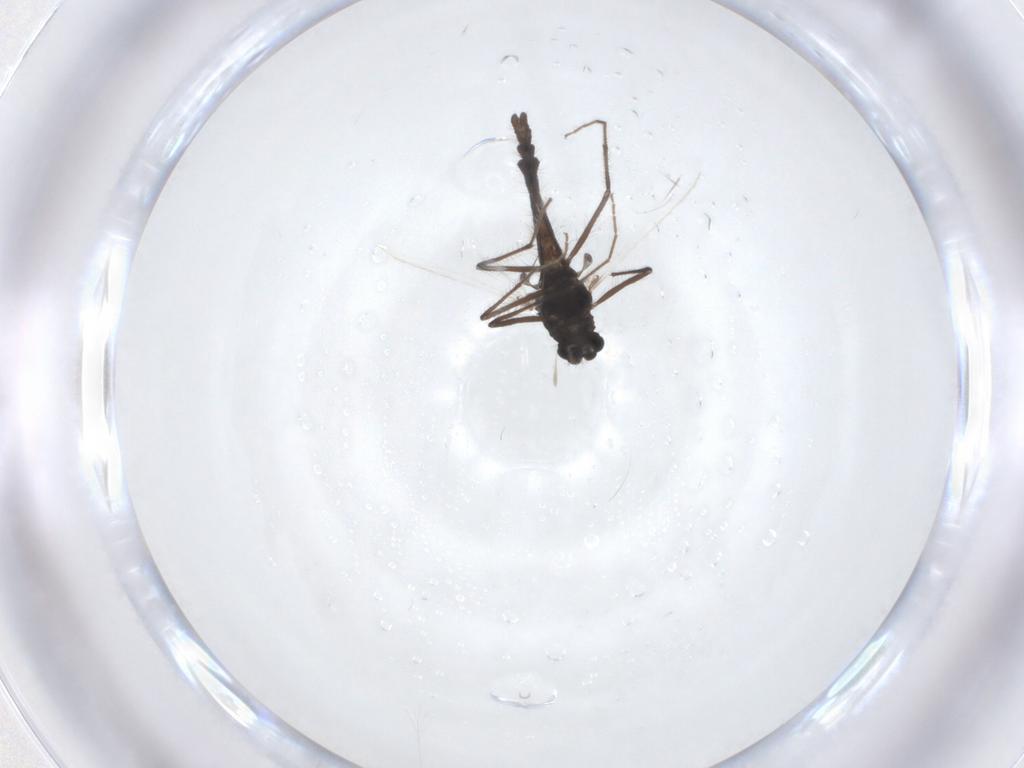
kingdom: Animalia
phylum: Arthropoda
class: Insecta
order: Diptera
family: Chironomidae
